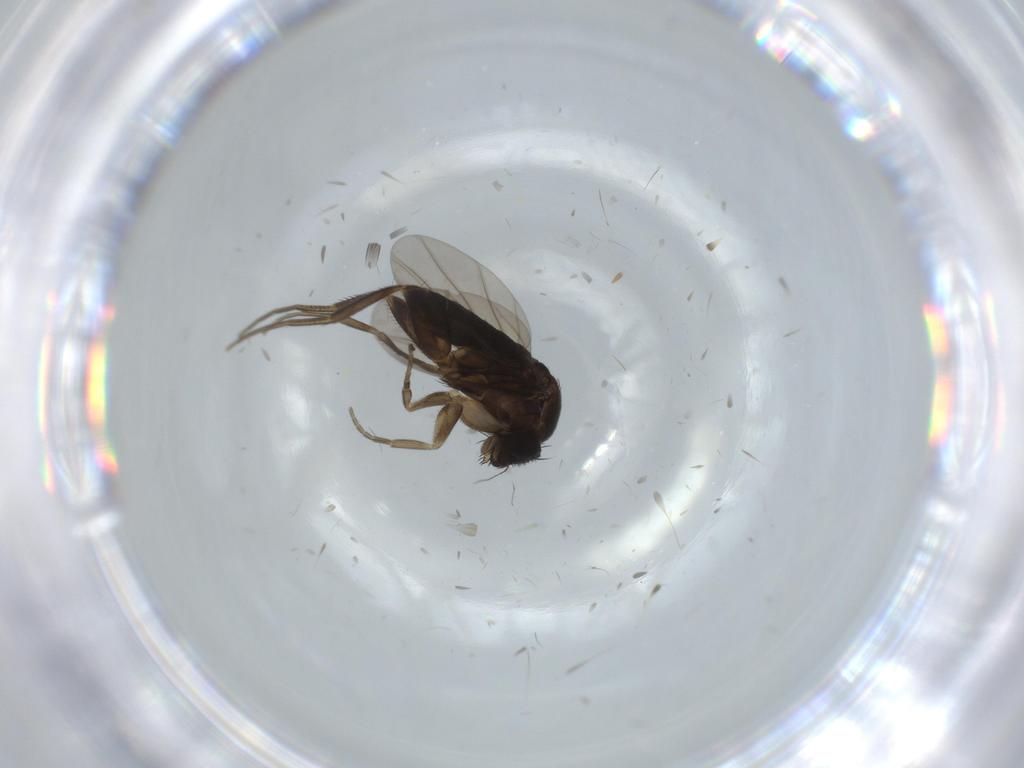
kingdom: Animalia
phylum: Arthropoda
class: Insecta
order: Diptera
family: Phoridae
